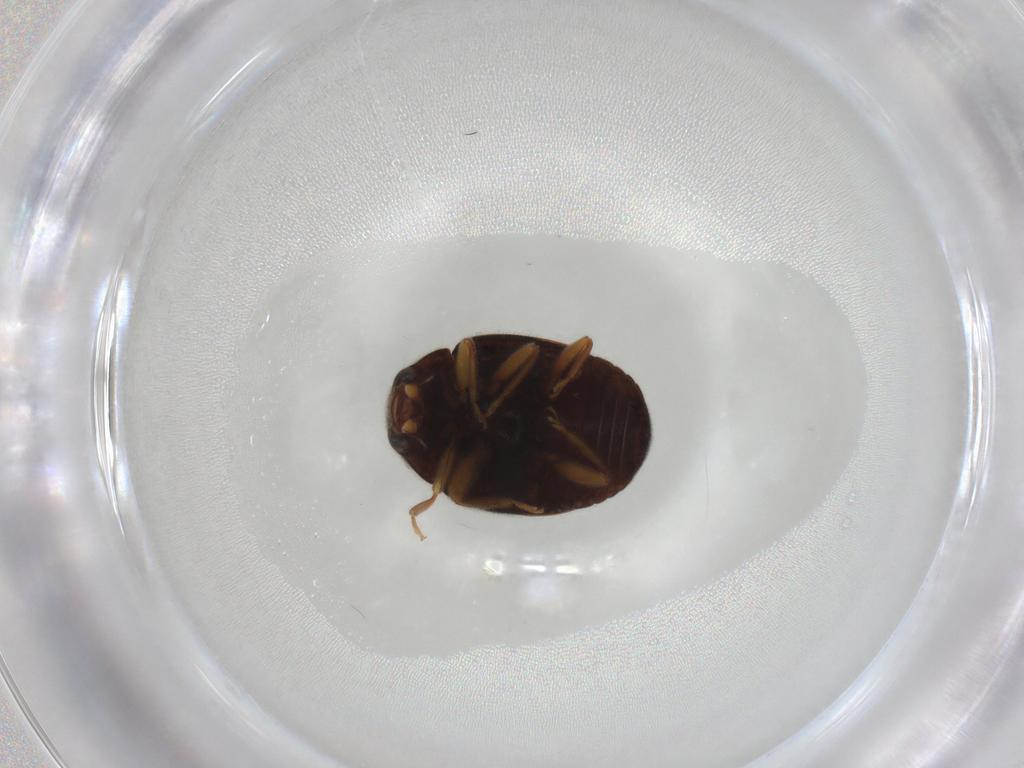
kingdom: Animalia
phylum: Arthropoda
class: Insecta
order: Coleoptera
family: Coccinellidae
